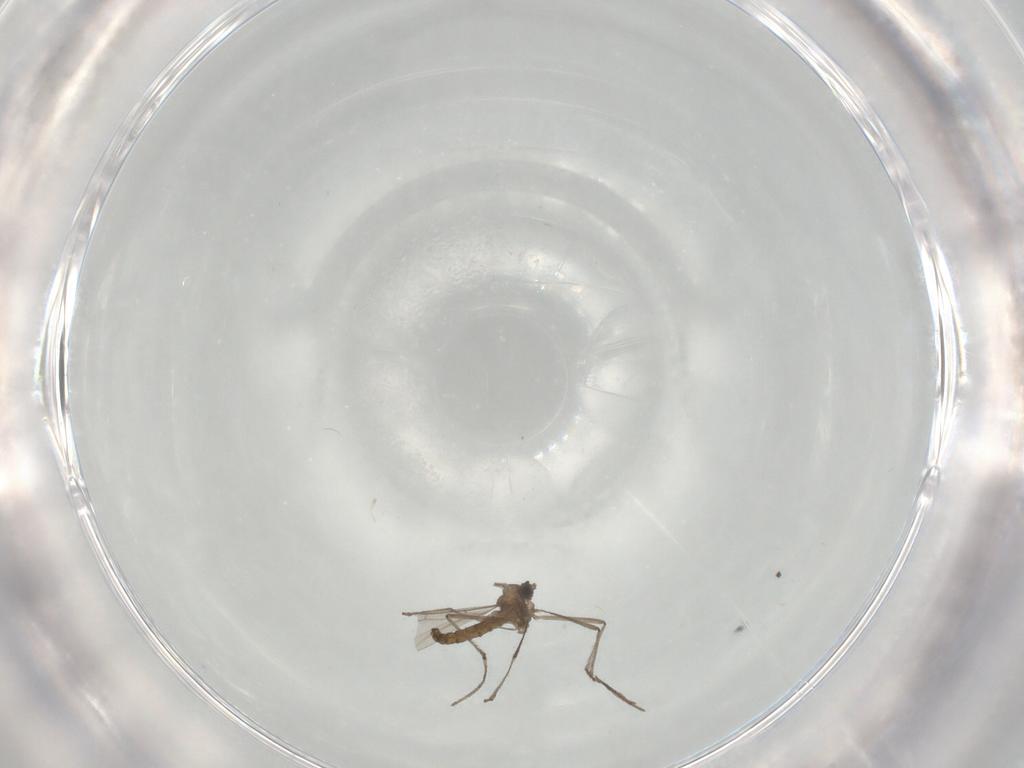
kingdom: Animalia
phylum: Arthropoda
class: Insecta
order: Diptera
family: Cecidomyiidae
